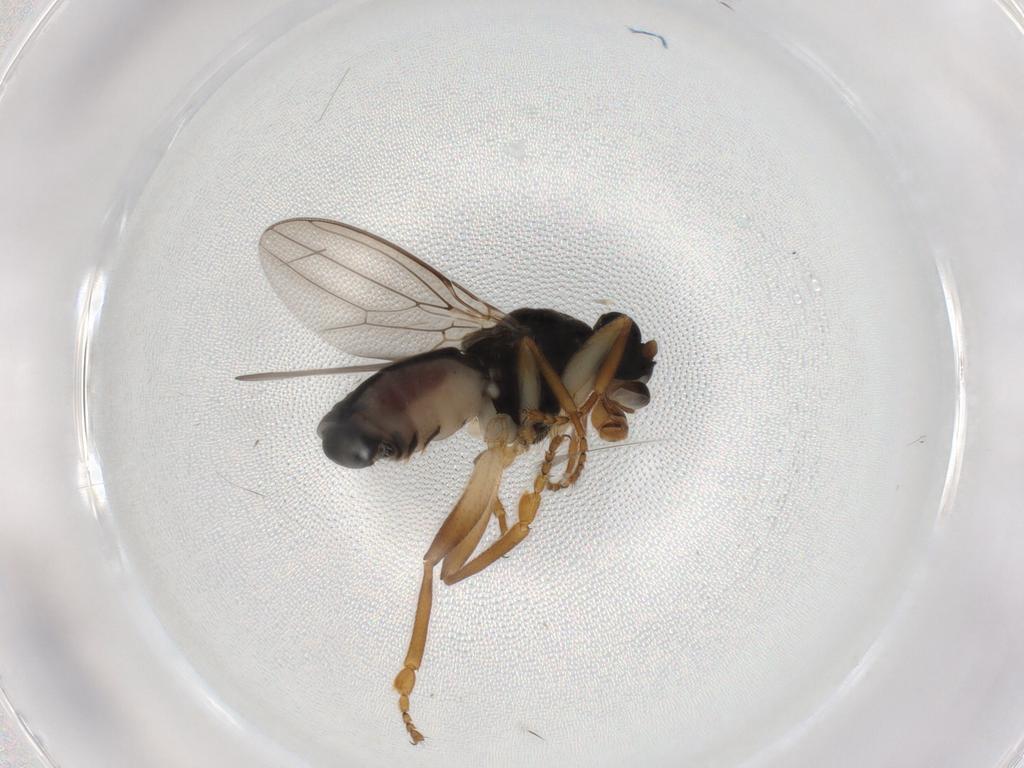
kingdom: Animalia
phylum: Arthropoda
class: Insecta
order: Diptera
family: Sphaeroceridae
